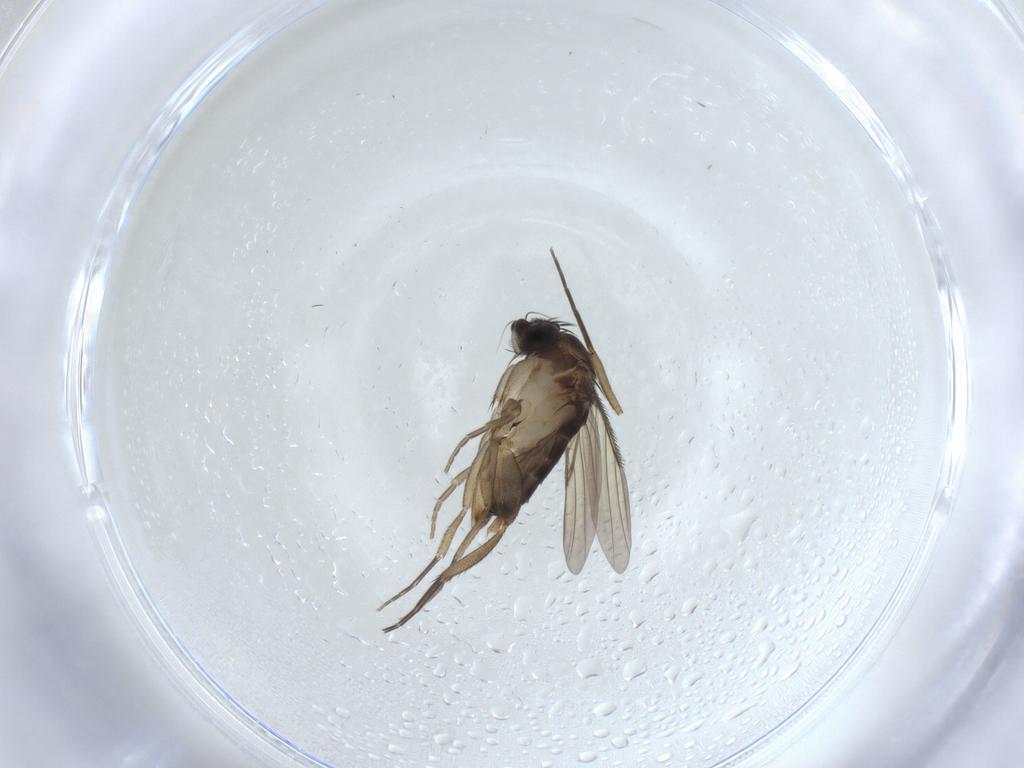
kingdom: Animalia
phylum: Arthropoda
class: Insecta
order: Diptera
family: Phoridae
